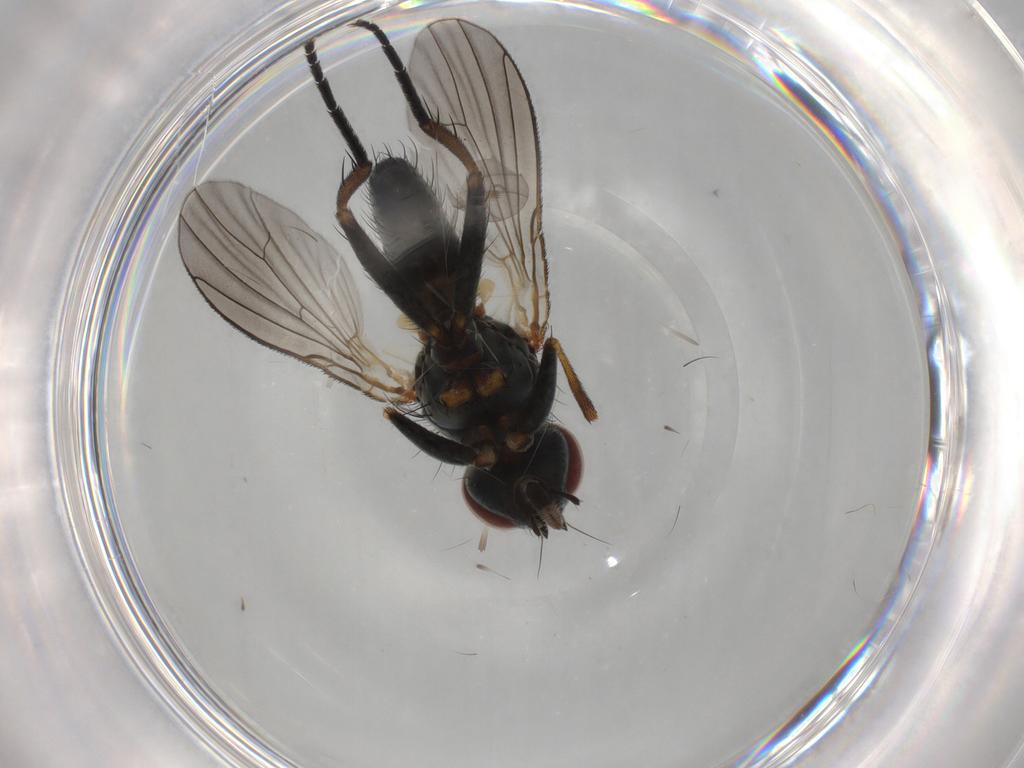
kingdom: Animalia
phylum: Arthropoda
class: Insecta
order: Diptera
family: Muscidae
